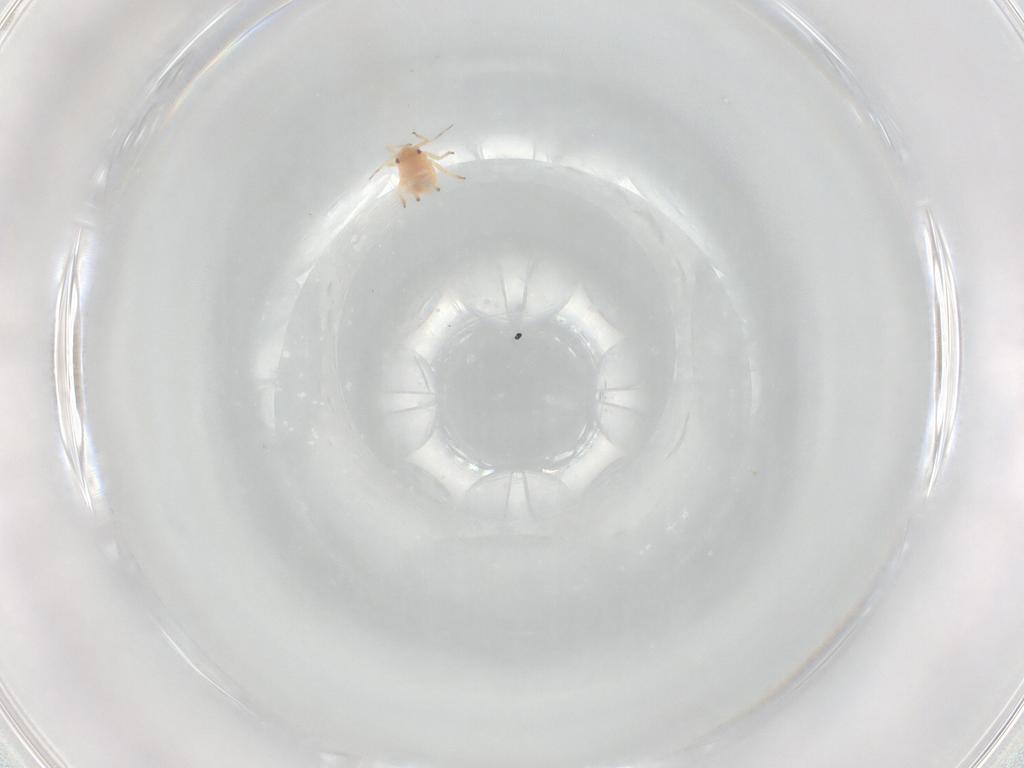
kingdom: Animalia
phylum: Arthropoda
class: Insecta
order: Hemiptera
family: Aphididae
